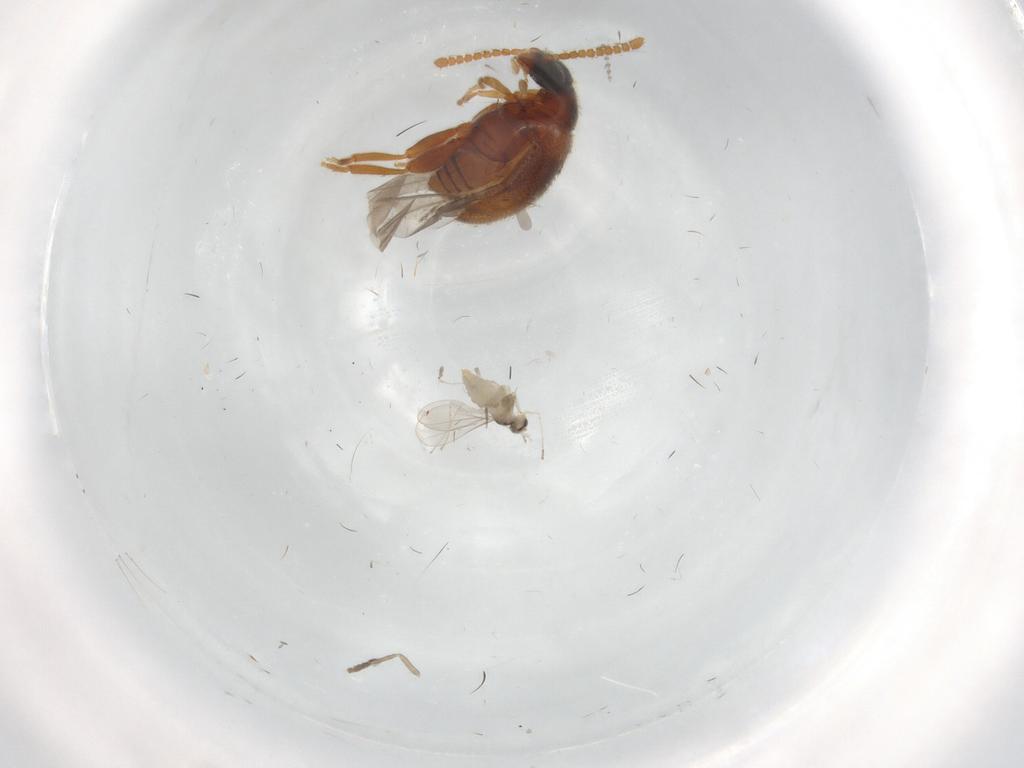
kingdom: Animalia
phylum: Arthropoda
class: Insecta
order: Coleoptera
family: Aderidae
